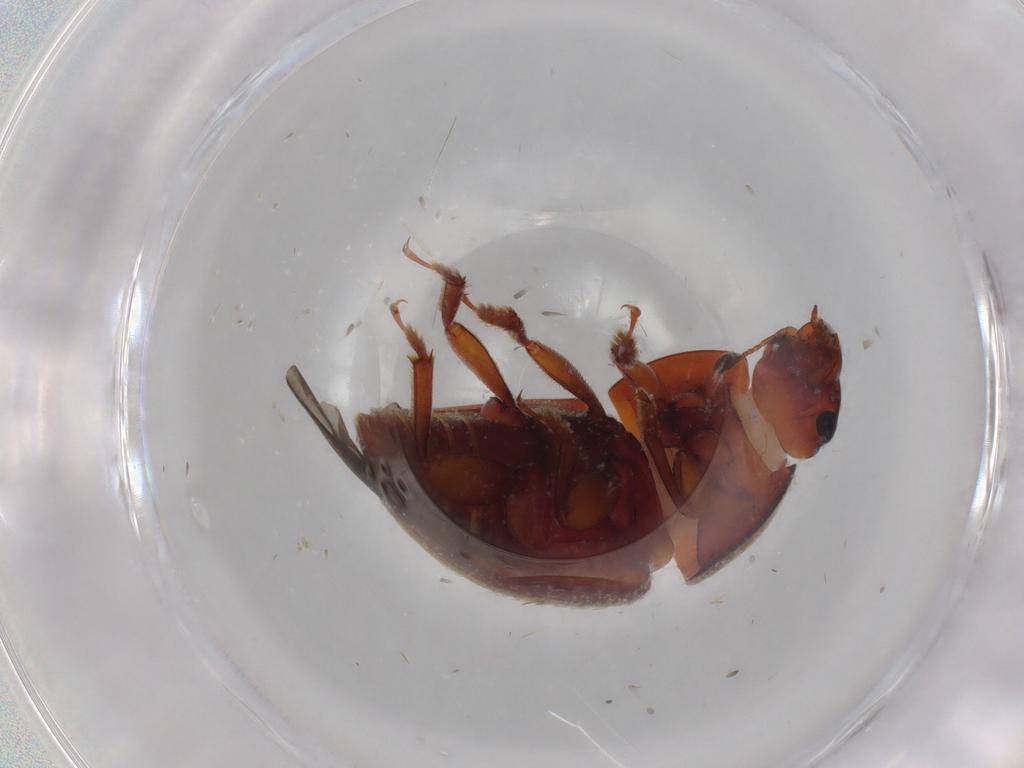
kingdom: Animalia
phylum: Arthropoda
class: Insecta
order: Coleoptera
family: Nitidulidae
